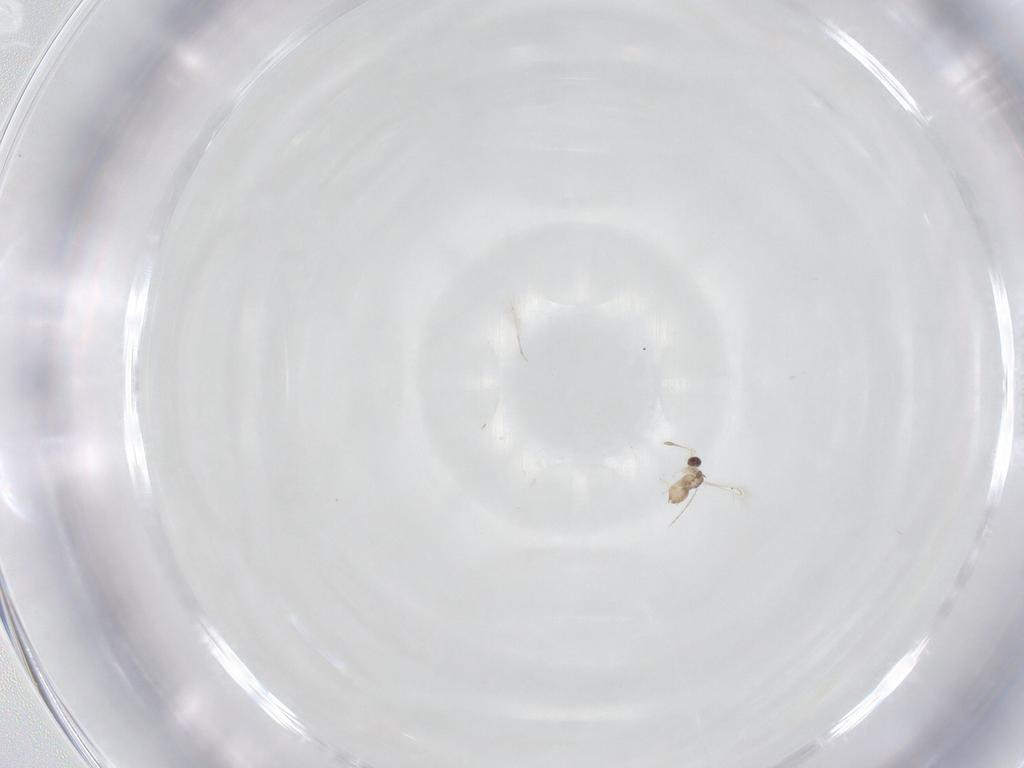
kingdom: Animalia
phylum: Arthropoda
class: Insecta
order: Hymenoptera
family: Mymaridae
